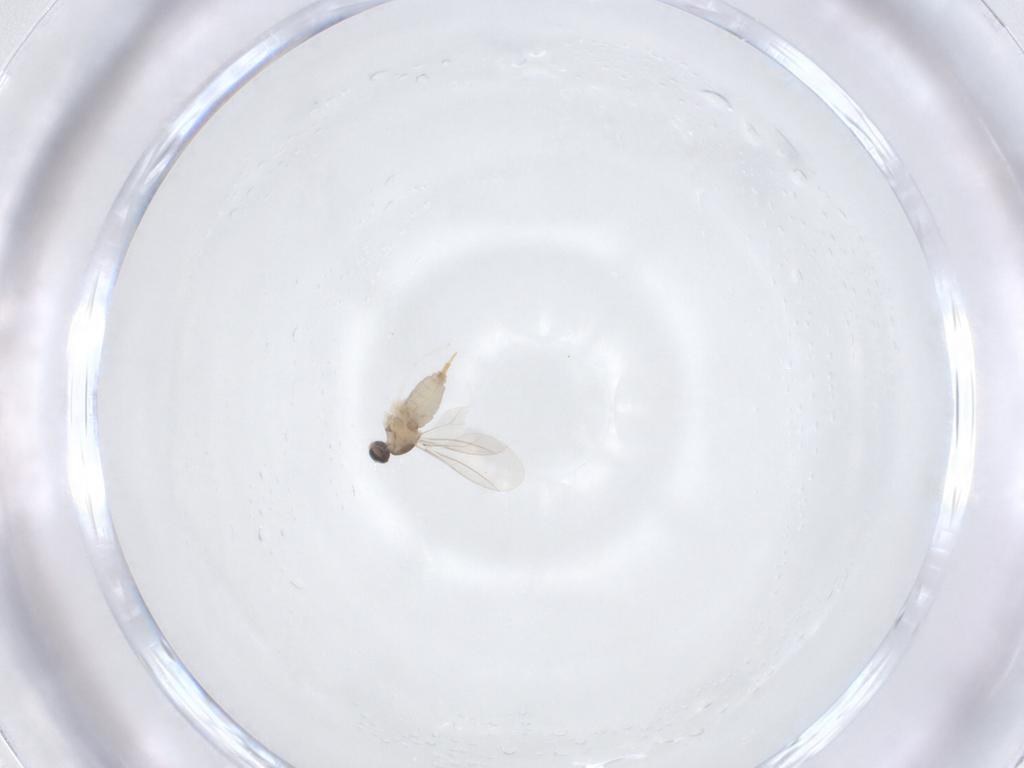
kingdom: Animalia
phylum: Arthropoda
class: Insecta
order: Diptera
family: Cecidomyiidae
